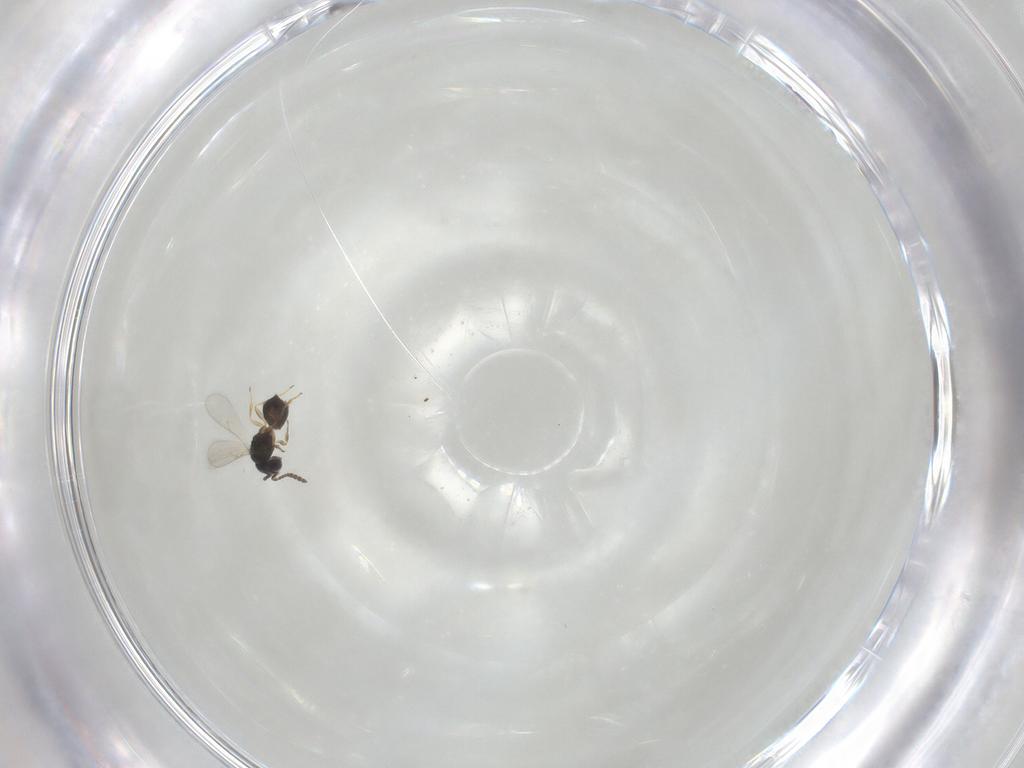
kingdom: Animalia
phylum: Arthropoda
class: Insecta
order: Hymenoptera
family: Scelionidae
